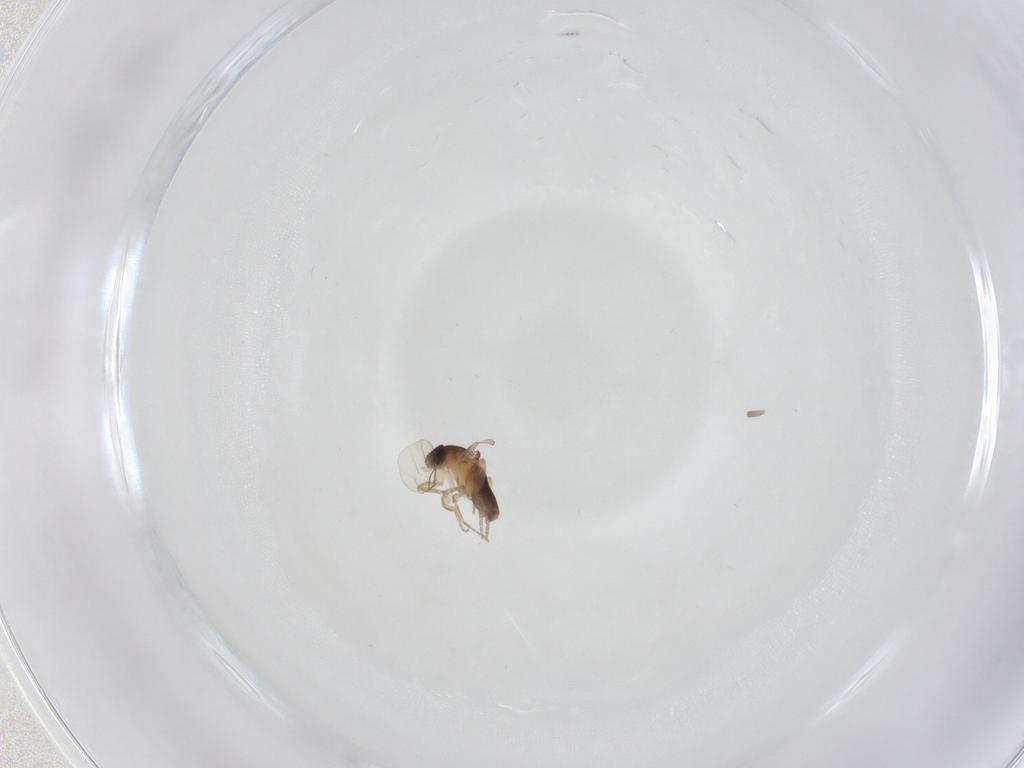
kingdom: Animalia
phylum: Arthropoda
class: Insecta
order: Diptera
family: Phoridae
